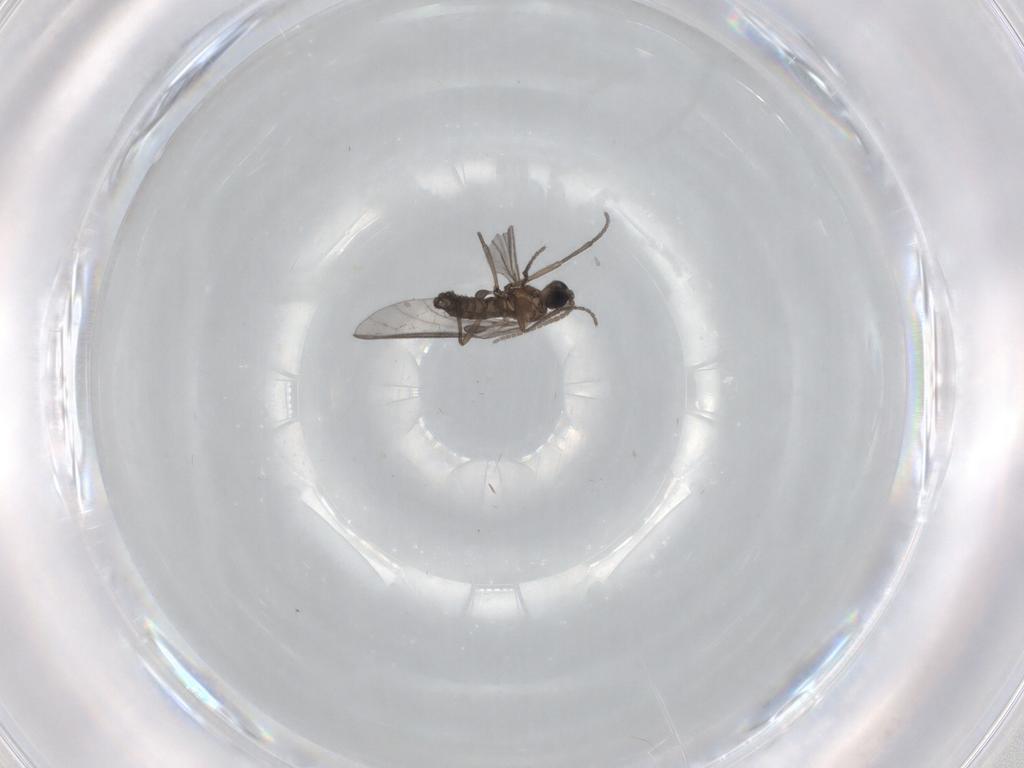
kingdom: Animalia
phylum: Arthropoda
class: Insecta
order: Diptera
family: Sciaridae
